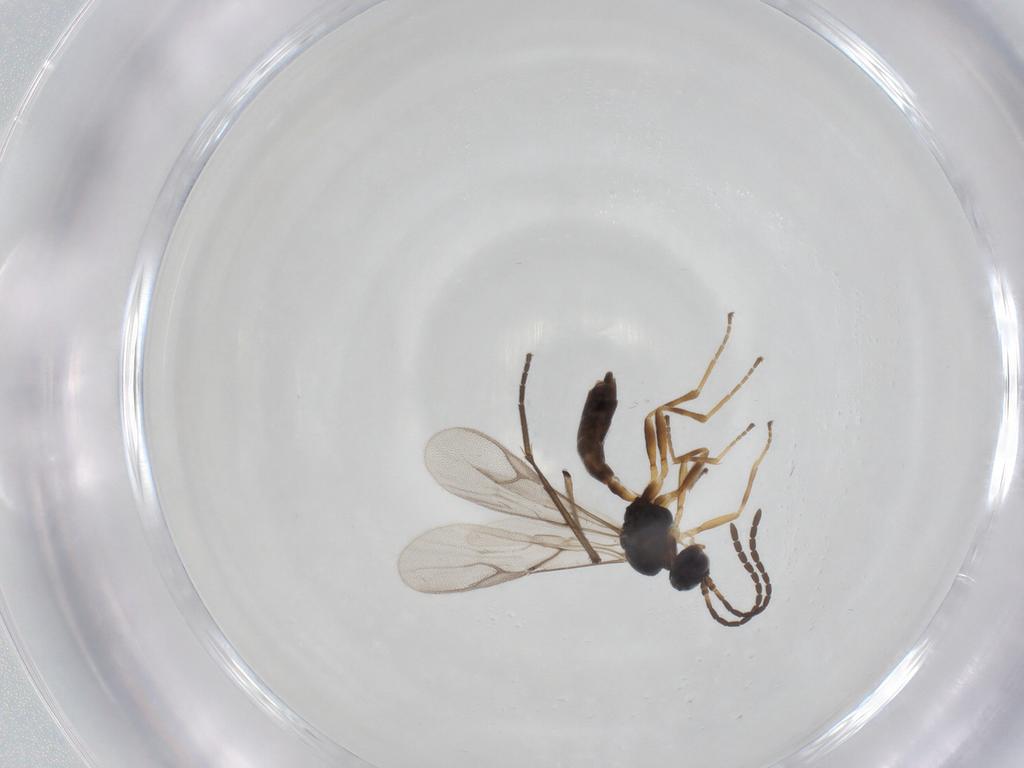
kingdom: Animalia
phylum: Arthropoda
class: Insecta
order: Hymenoptera
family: Braconidae
